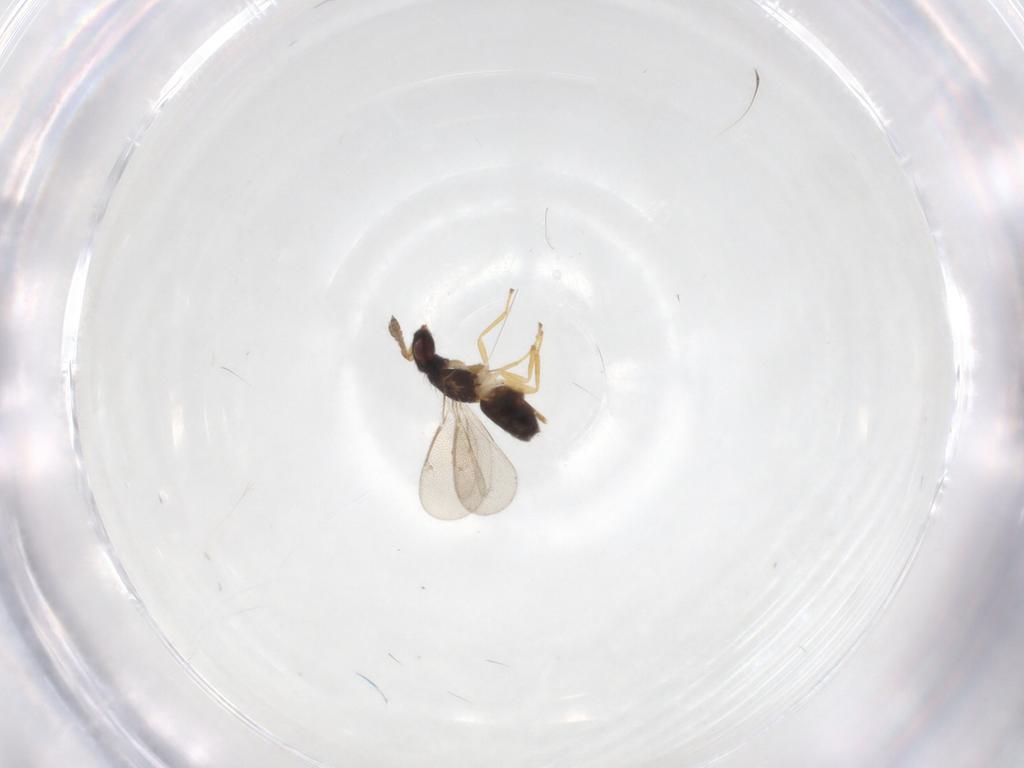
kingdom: Animalia
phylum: Arthropoda
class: Insecta
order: Hymenoptera
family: Eulophidae
